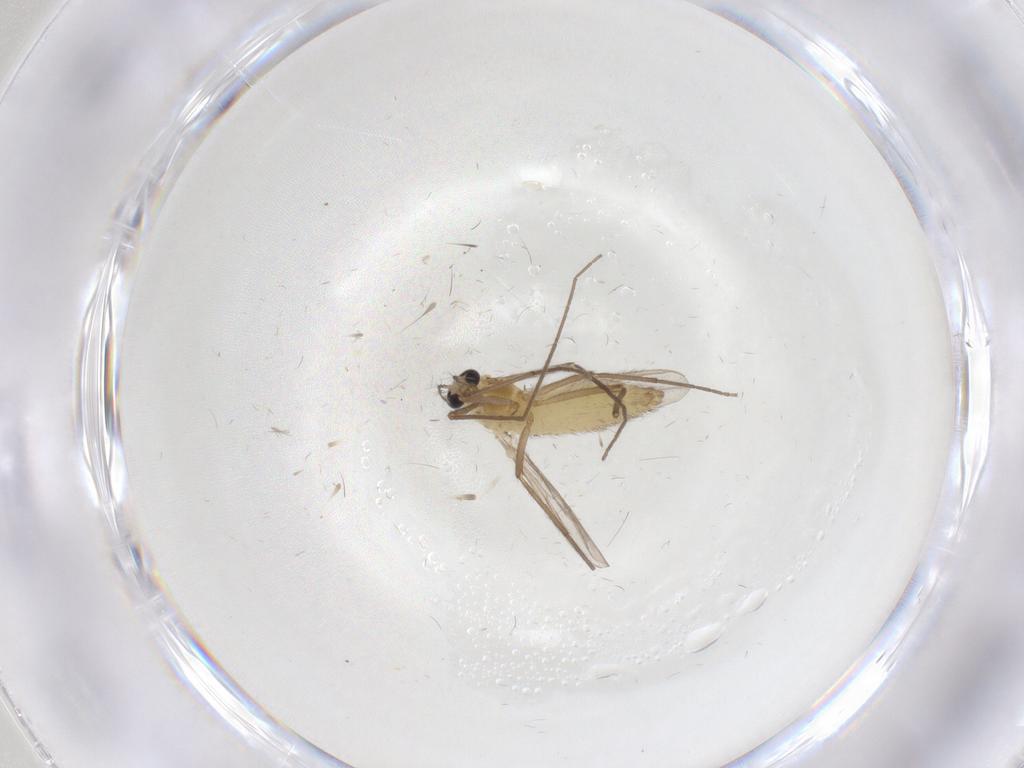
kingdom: Animalia
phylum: Arthropoda
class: Insecta
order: Diptera
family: Chironomidae
